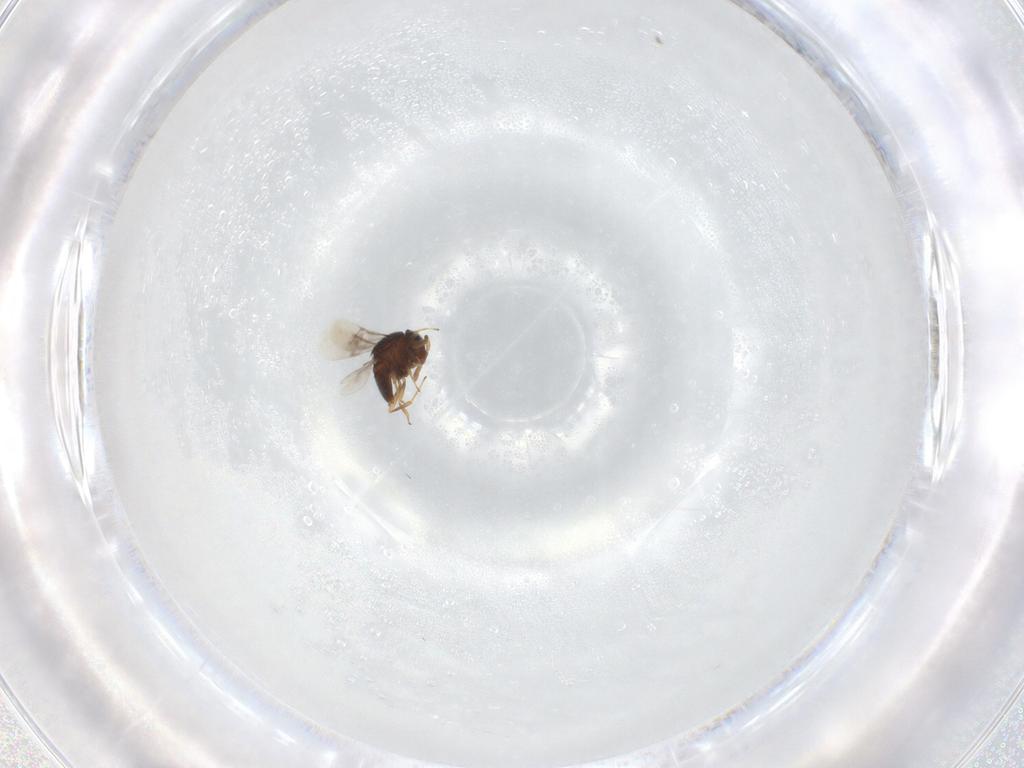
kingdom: Animalia
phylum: Arthropoda
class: Insecta
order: Hymenoptera
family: Scelionidae
